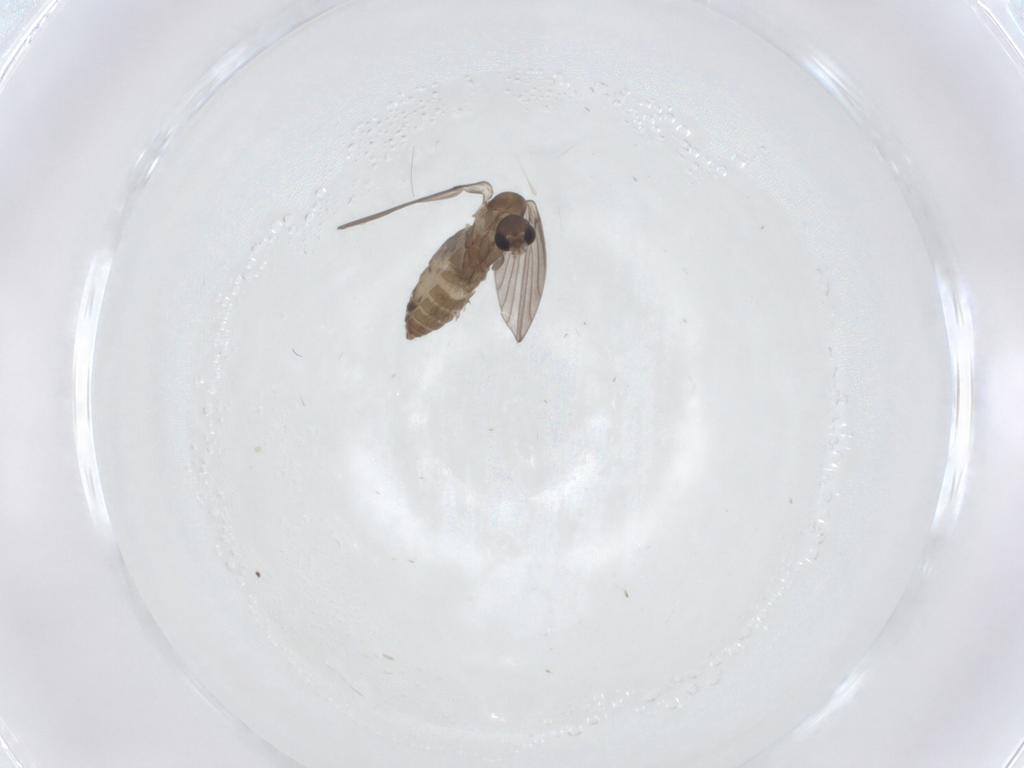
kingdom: Animalia
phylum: Arthropoda
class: Insecta
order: Diptera
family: Psychodidae
